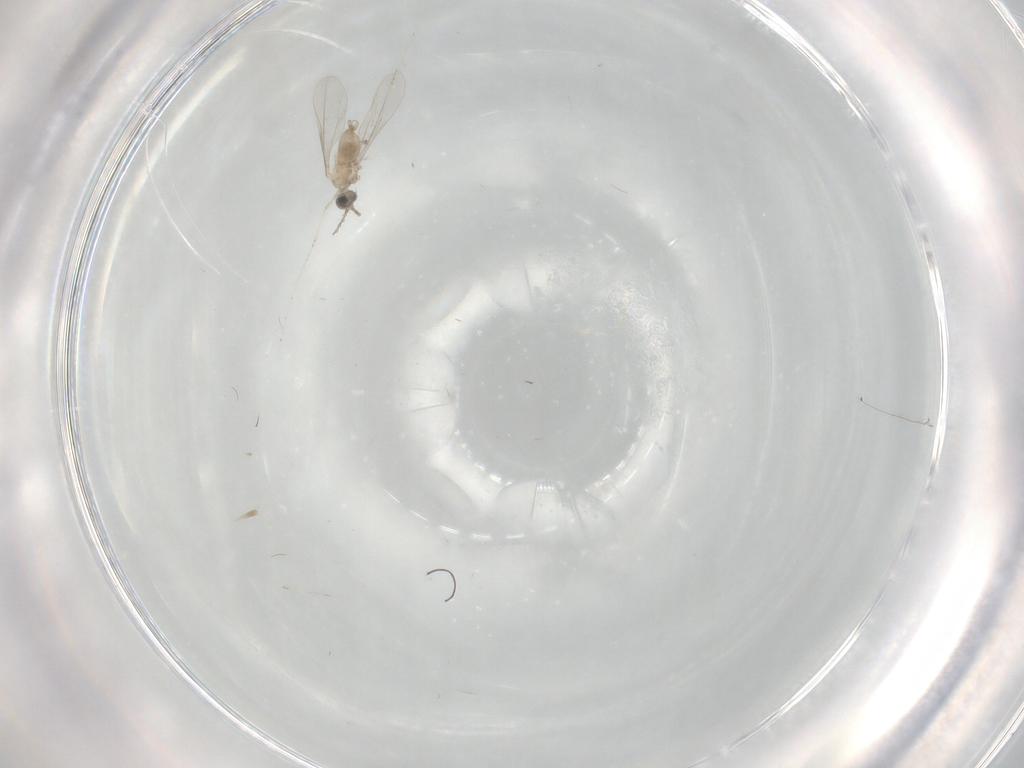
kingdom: Animalia
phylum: Arthropoda
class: Insecta
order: Diptera
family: Cecidomyiidae
